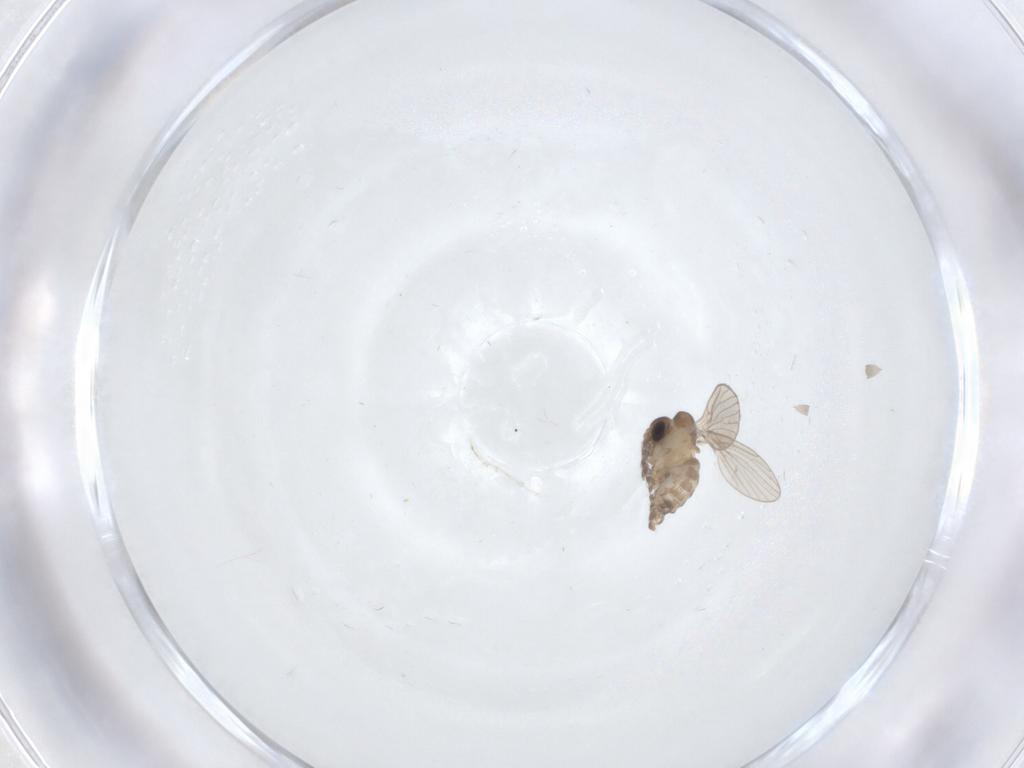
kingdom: Animalia
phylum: Arthropoda
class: Insecta
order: Diptera
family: Psychodidae
